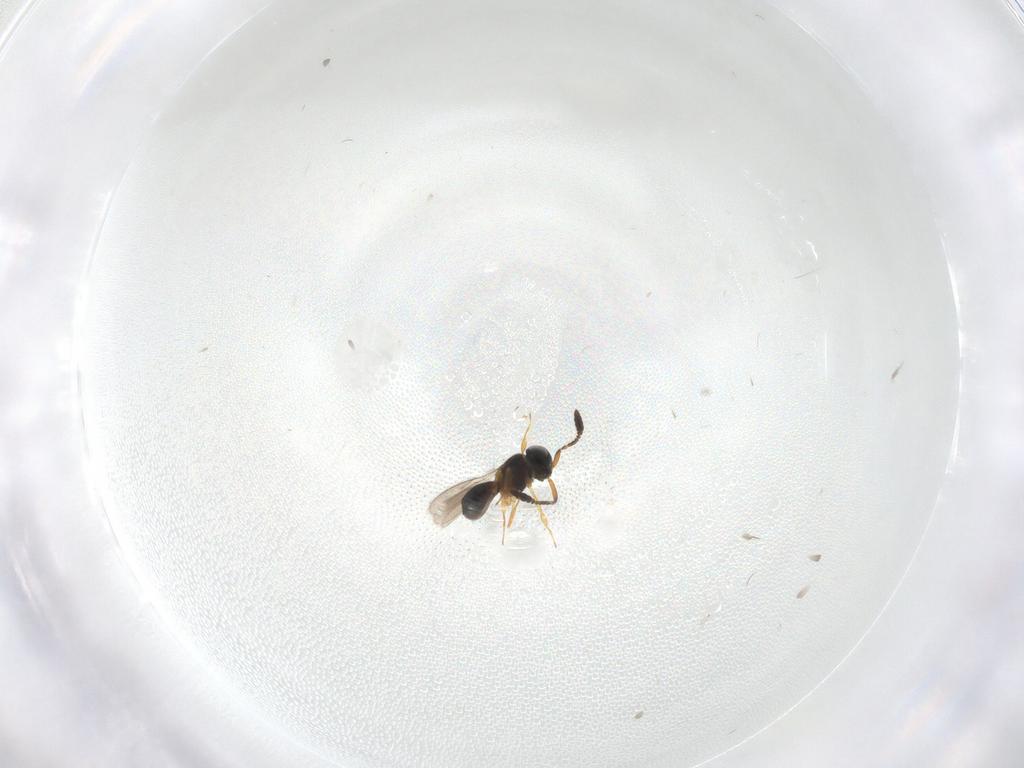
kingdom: Animalia
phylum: Arthropoda
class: Insecta
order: Hymenoptera
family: Scelionidae
